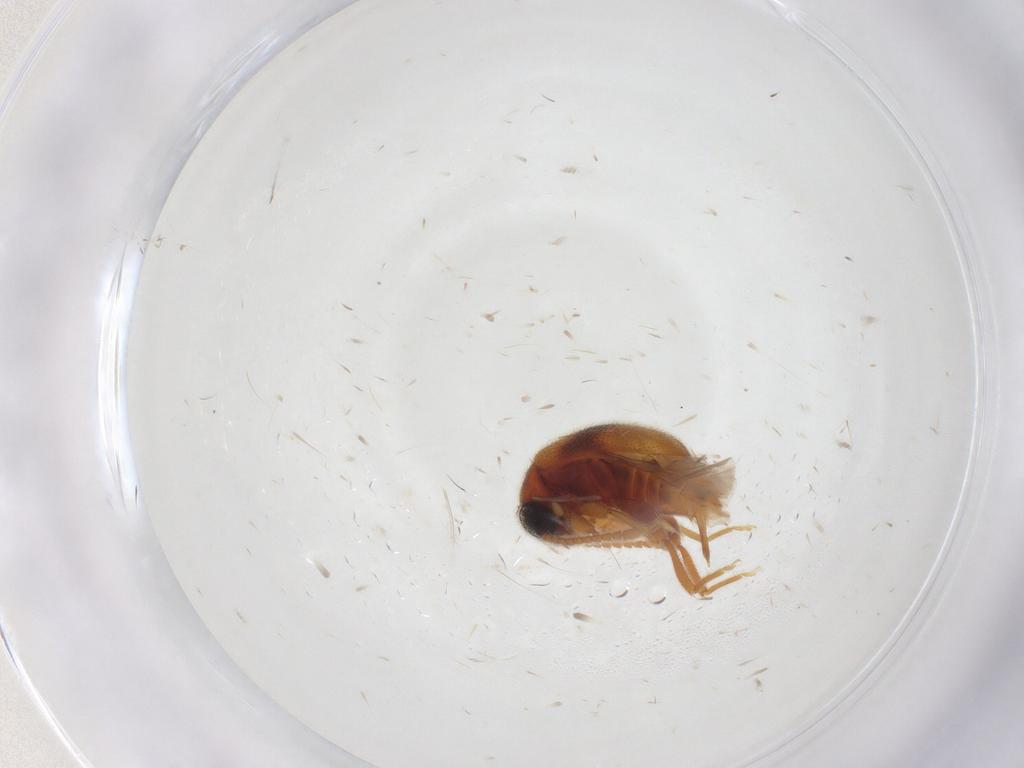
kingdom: Animalia
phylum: Arthropoda
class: Insecta
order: Coleoptera
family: Aderidae
